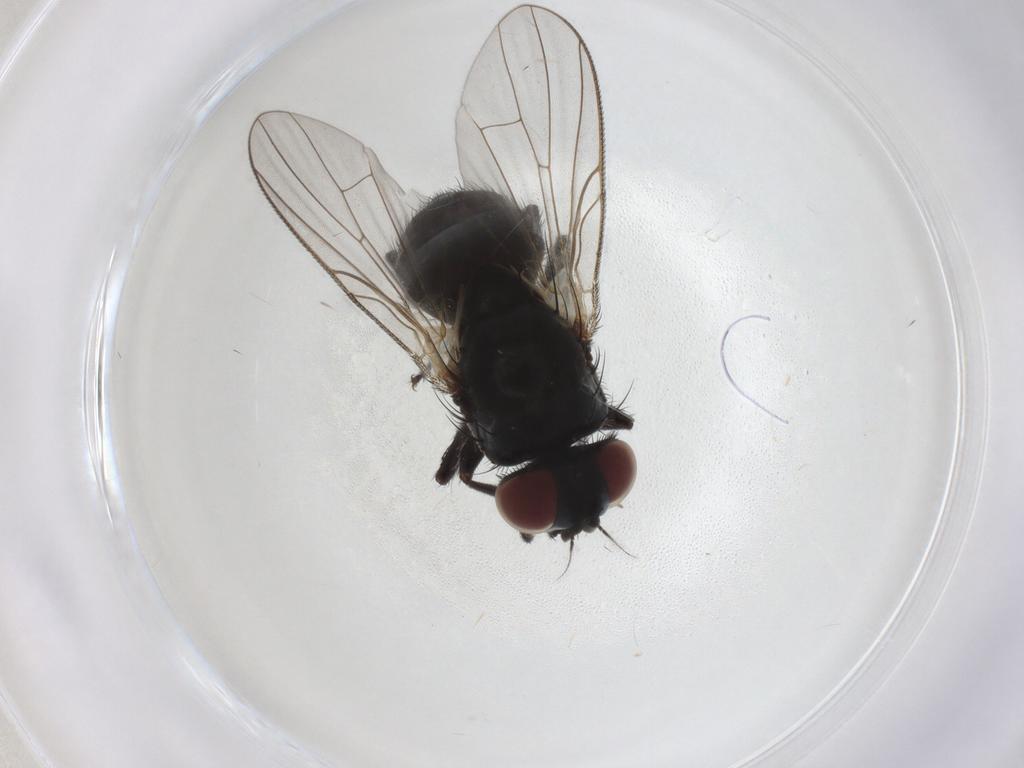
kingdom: Animalia
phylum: Arthropoda
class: Insecta
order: Diptera
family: Muscidae
